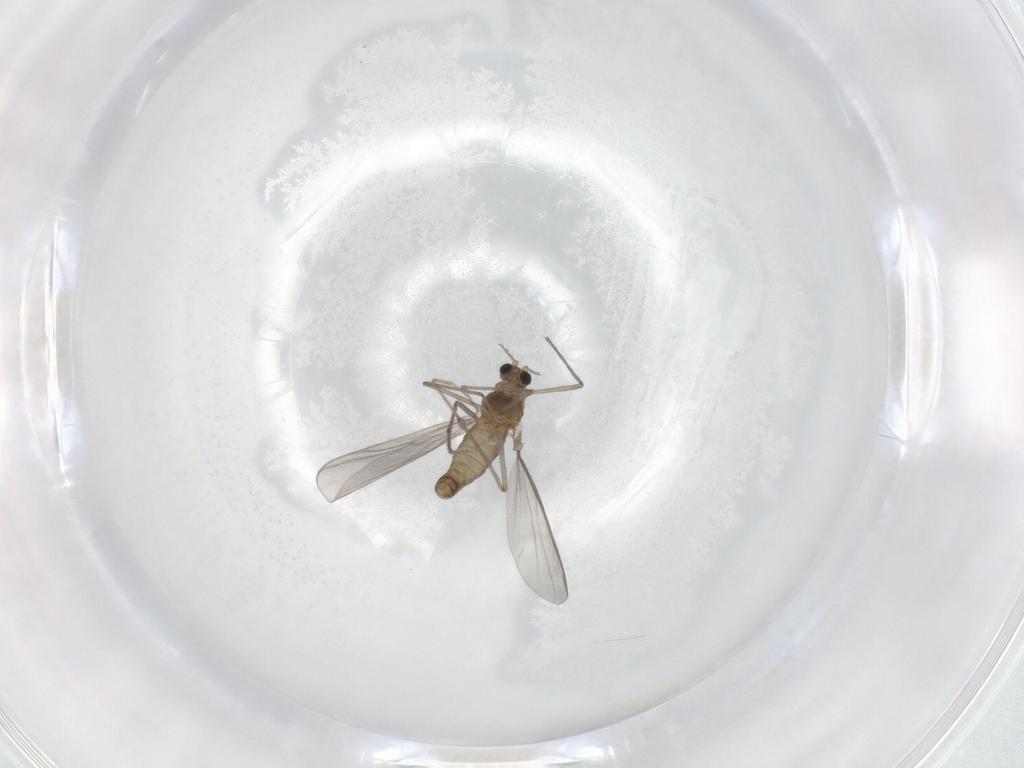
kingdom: Animalia
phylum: Arthropoda
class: Insecta
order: Diptera
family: Chironomidae
